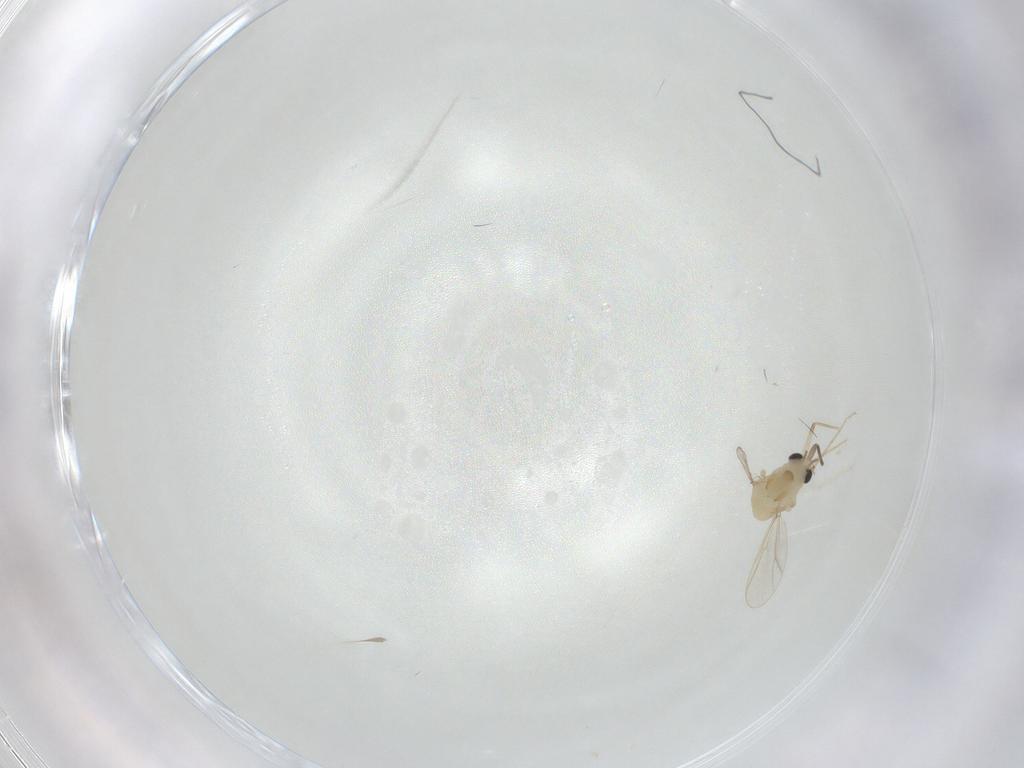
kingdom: Animalia
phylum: Arthropoda
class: Insecta
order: Diptera
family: Chironomidae
